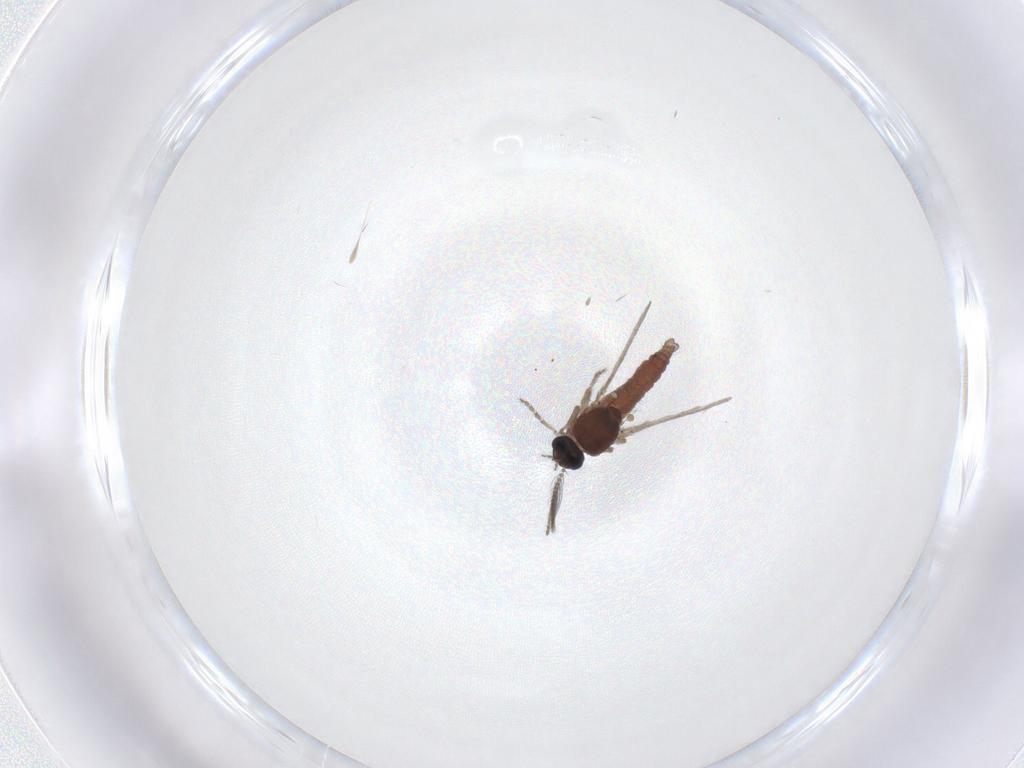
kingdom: Animalia
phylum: Arthropoda
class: Insecta
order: Diptera
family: Ceratopogonidae
